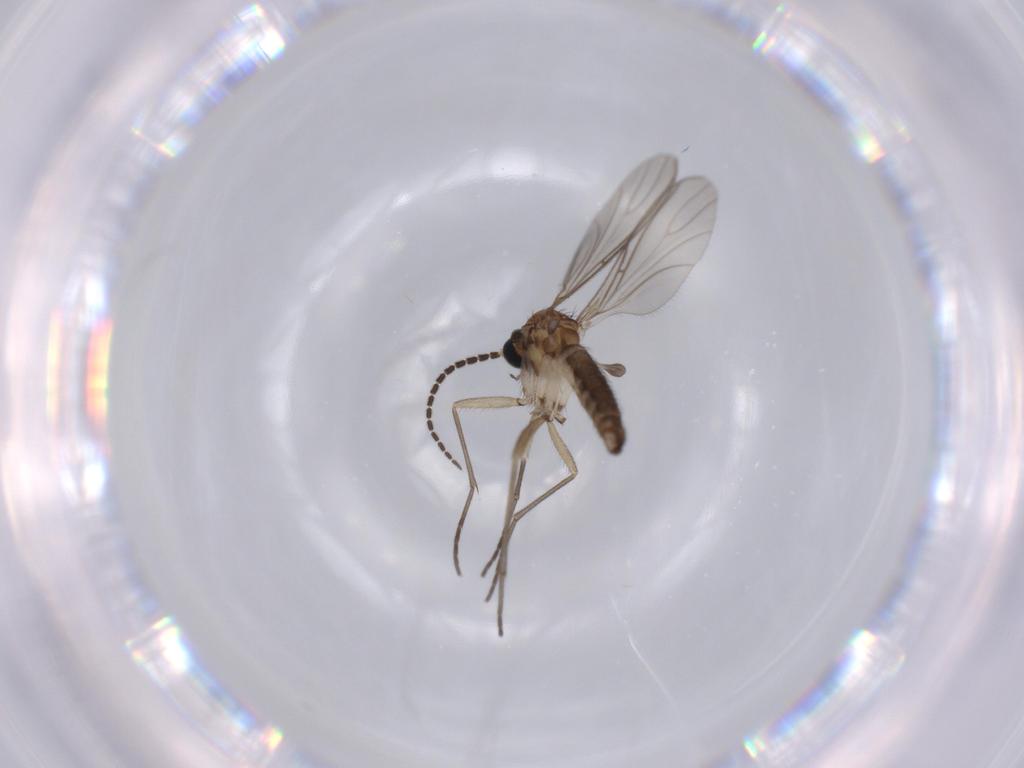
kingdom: Animalia
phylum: Arthropoda
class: Insecta
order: Diptera
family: Sciaridae
